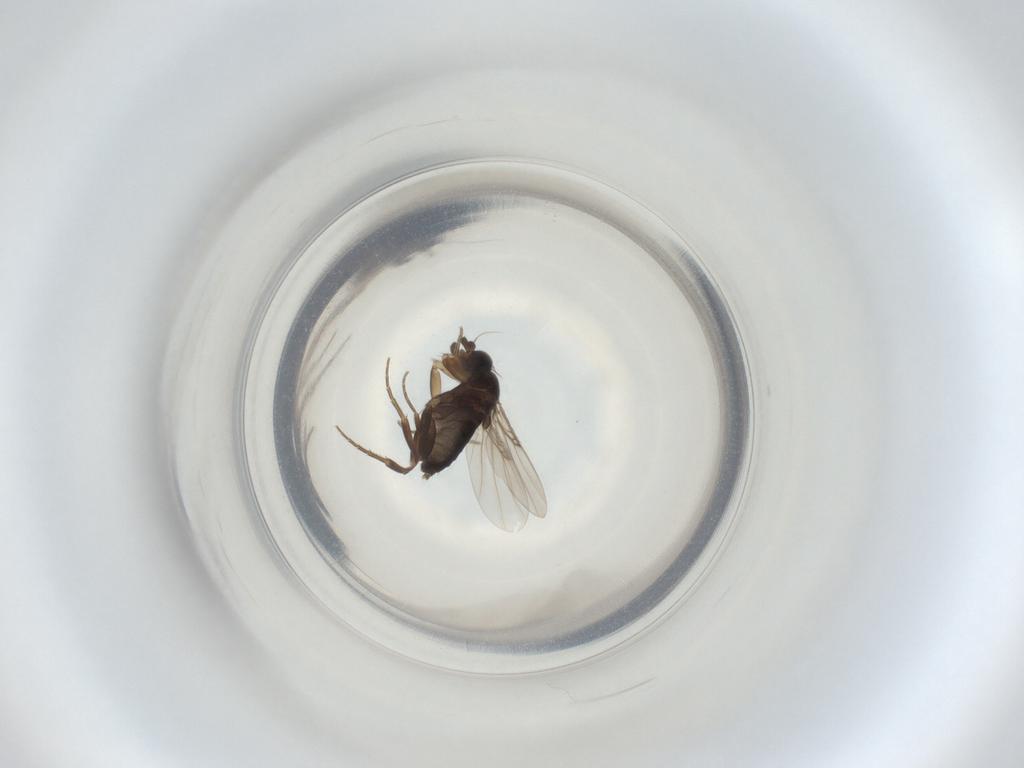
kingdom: Animalia
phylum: Arthropoda
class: Insecta
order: Diptera
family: Phoridae
